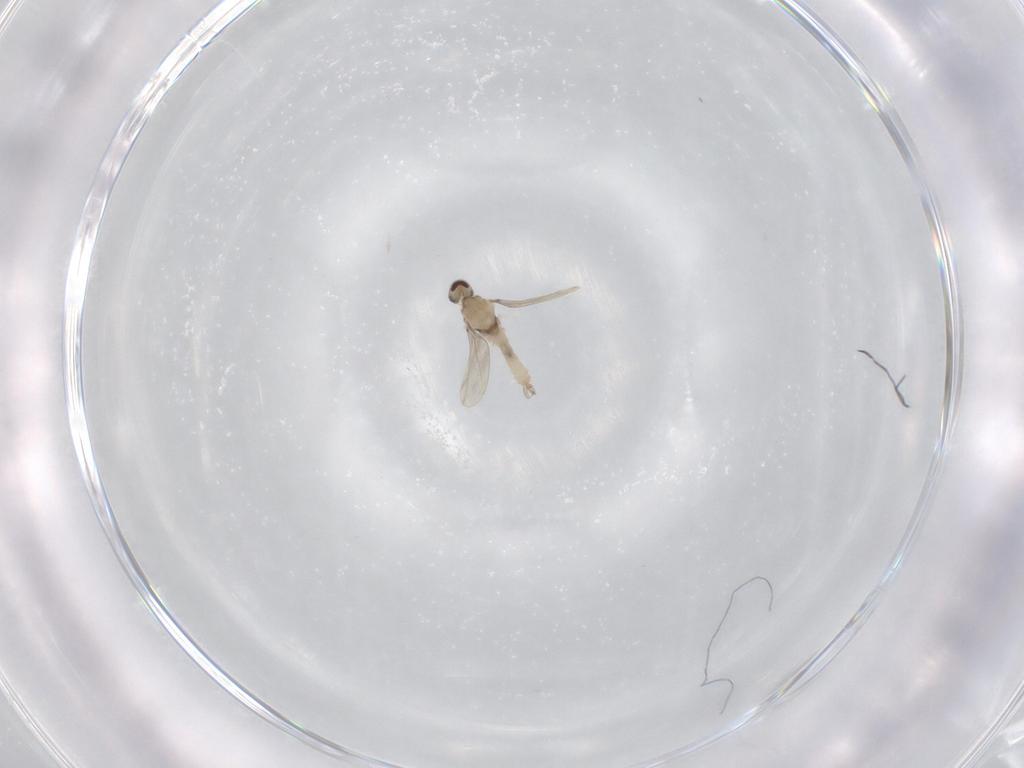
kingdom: Animalia
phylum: Arthropoda
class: Insecta
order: Diptera
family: Cecidomyiidae
